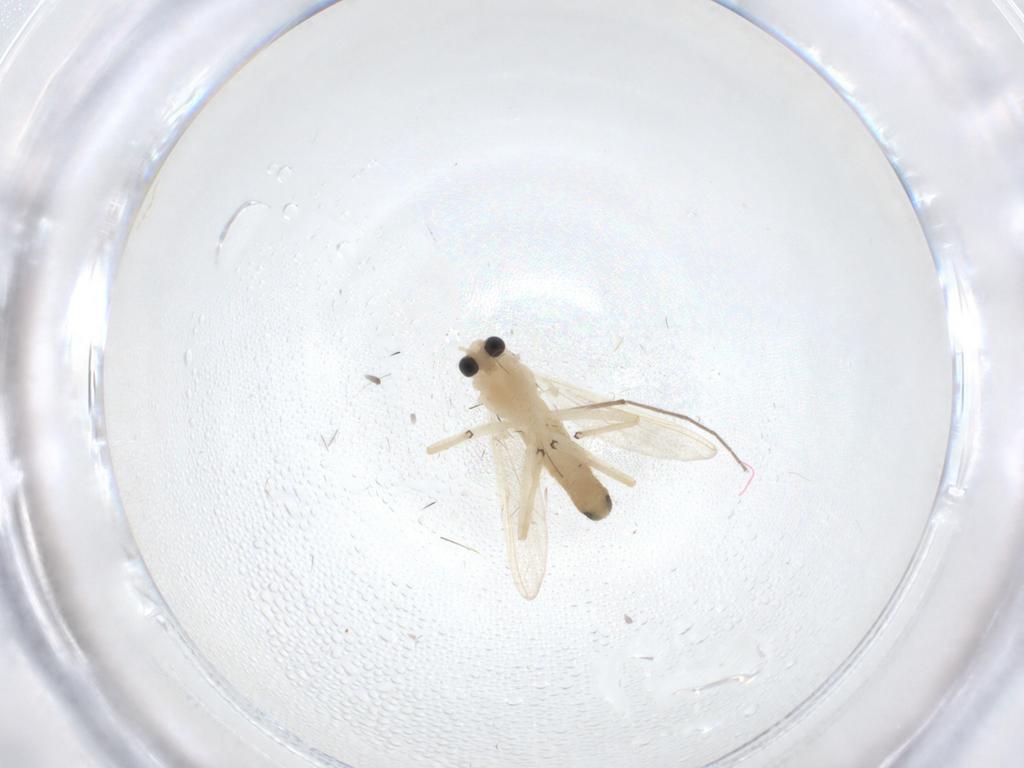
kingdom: Animalia
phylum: Arthropoda
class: Insecta
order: Diptera
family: Chironomidae
